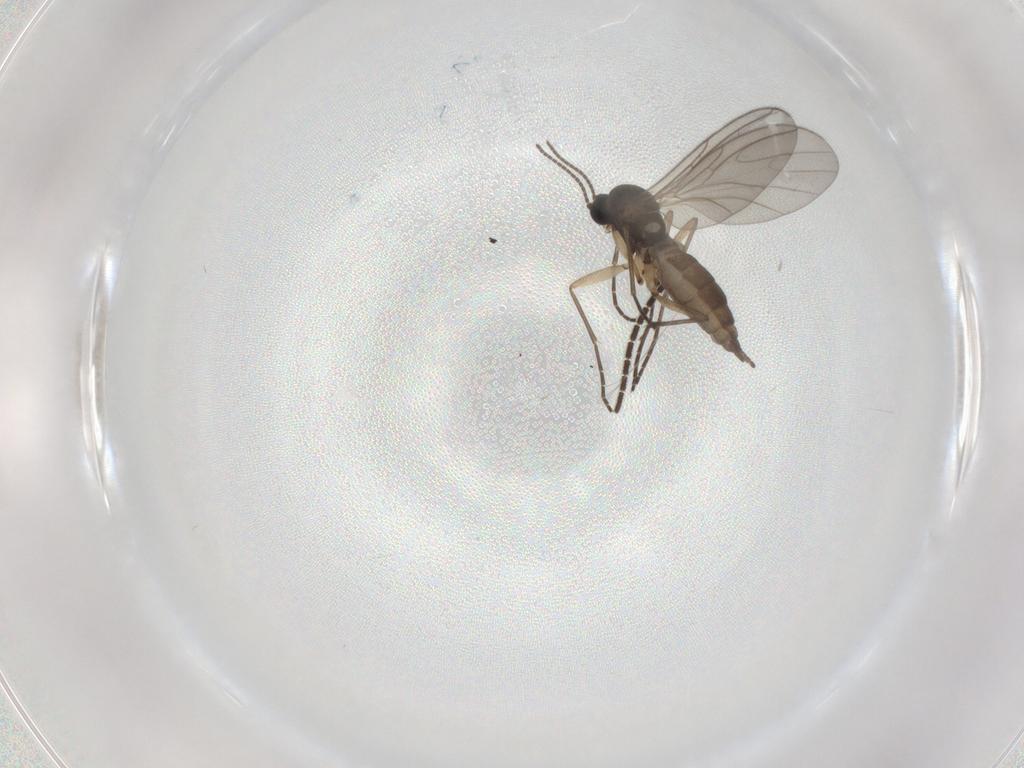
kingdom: Animalia
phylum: Arthropoda
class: Insecta
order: Diptera
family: Sciaridae
